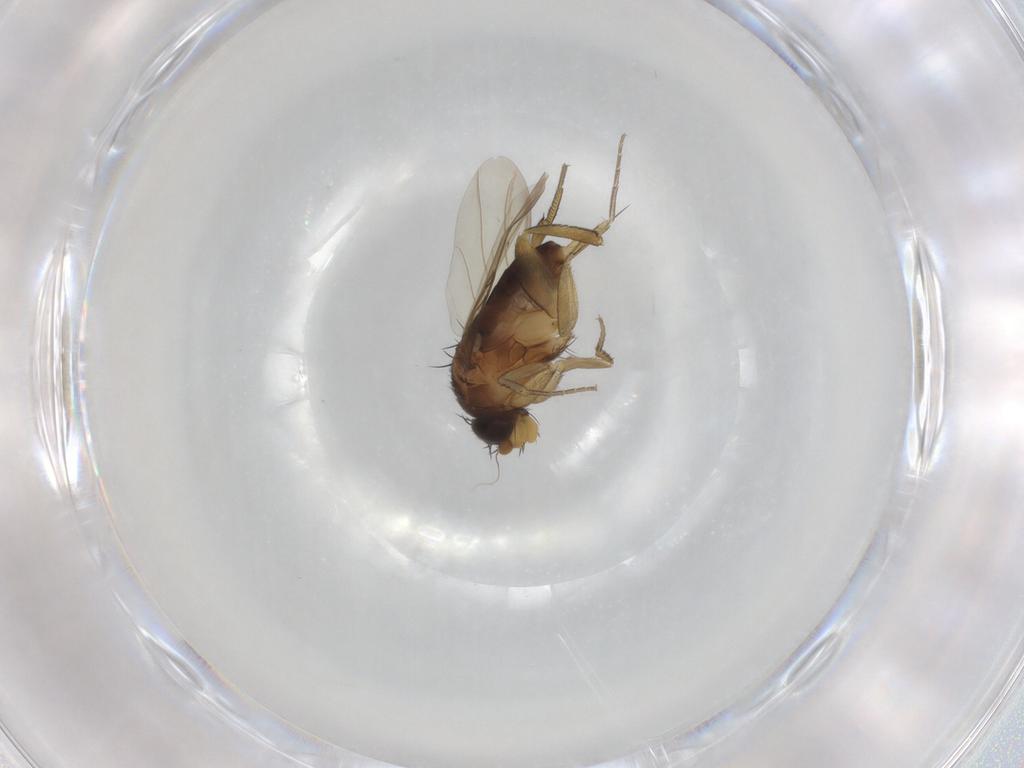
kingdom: Animalia
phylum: Arthropoda
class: Insecta
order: Diptera
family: Phoridae
